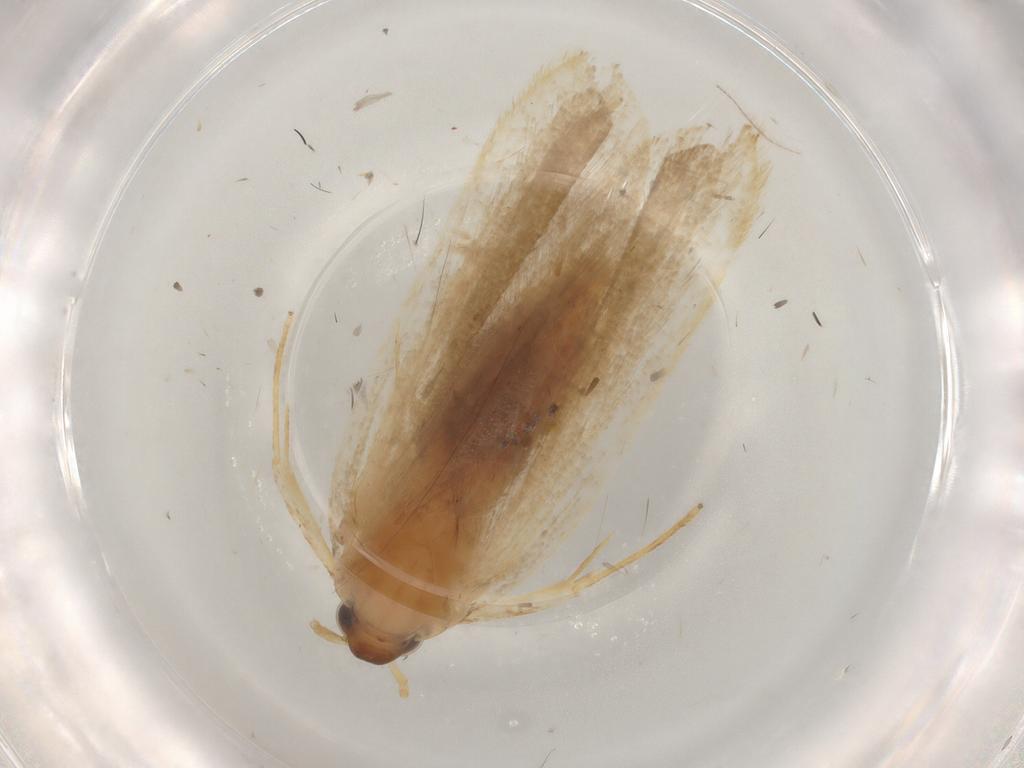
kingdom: Animalia
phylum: Arthropoda
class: Insecta
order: Lepidoptera
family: Lecithoceridae
